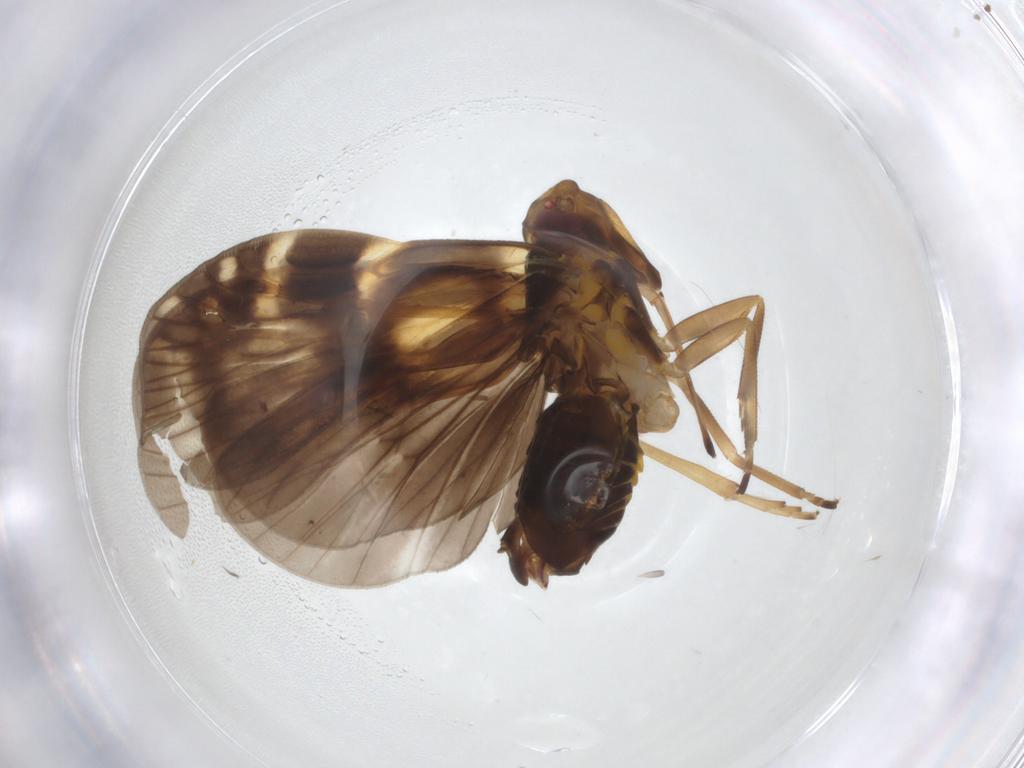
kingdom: Animalia
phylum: Arthropoda
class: Insecta
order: Hemiptera
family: Cixiidae
